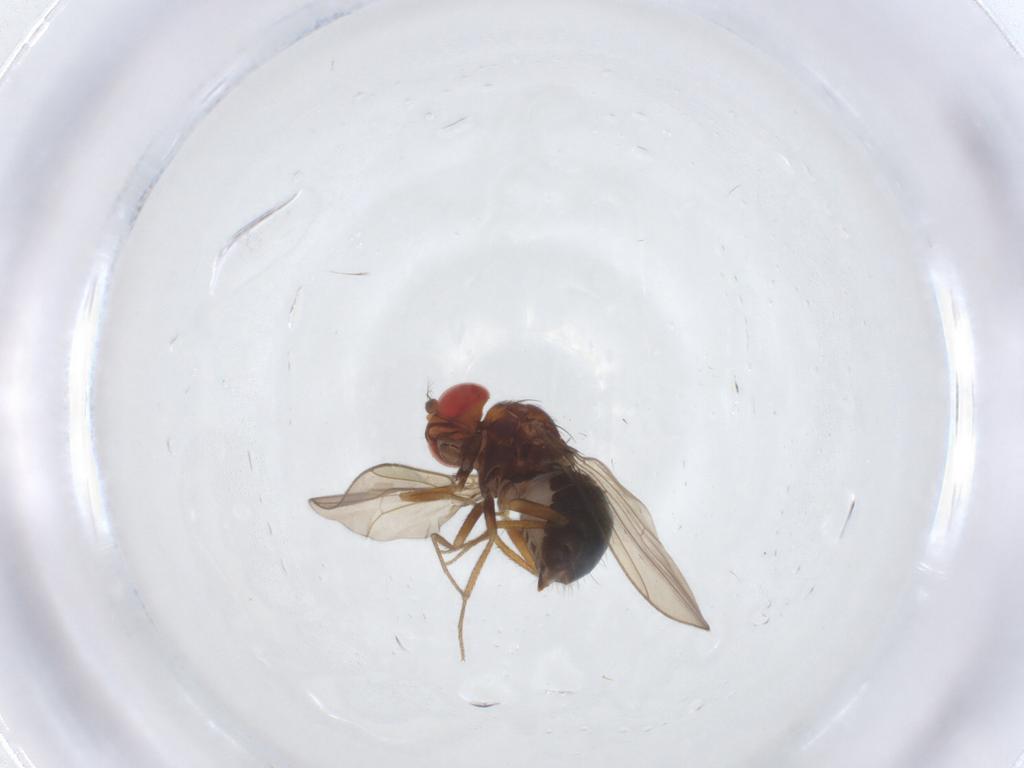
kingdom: Animalia
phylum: Arthropoda
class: Insecta
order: Diptera
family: Drosophilidae
